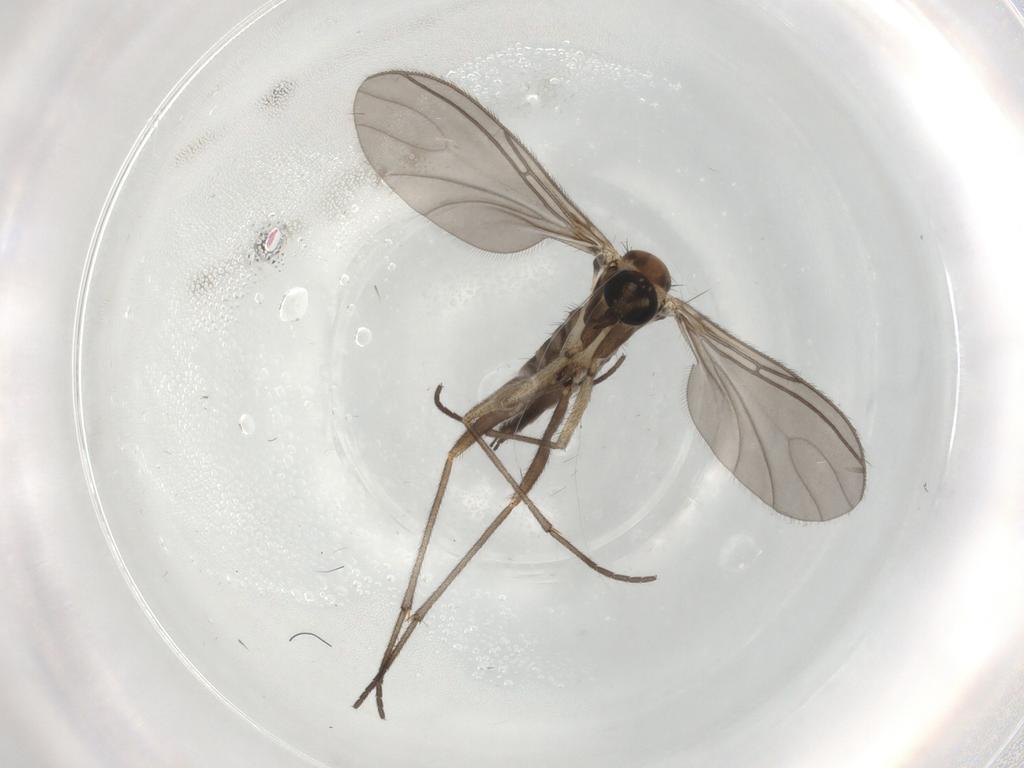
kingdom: Animalia
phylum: Arthropoda
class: Insecta
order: Diptera
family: Sciaridae
